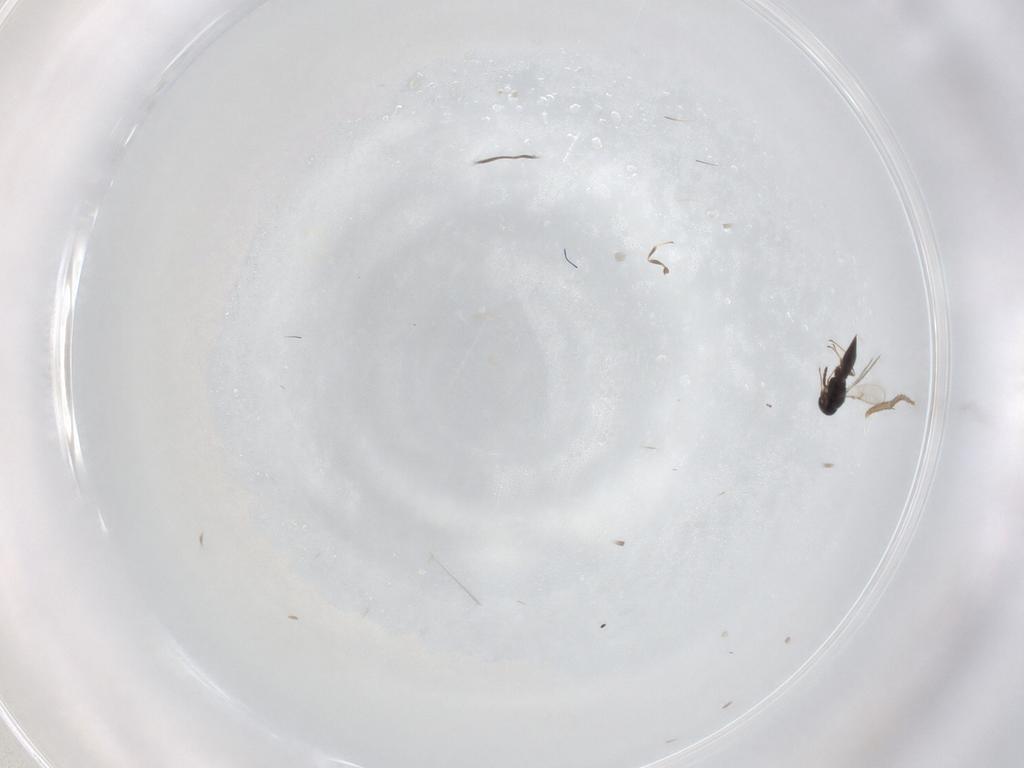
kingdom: Animalia
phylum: Arthropoda
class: Insecta
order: Hymenoptera
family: Scelionidae
